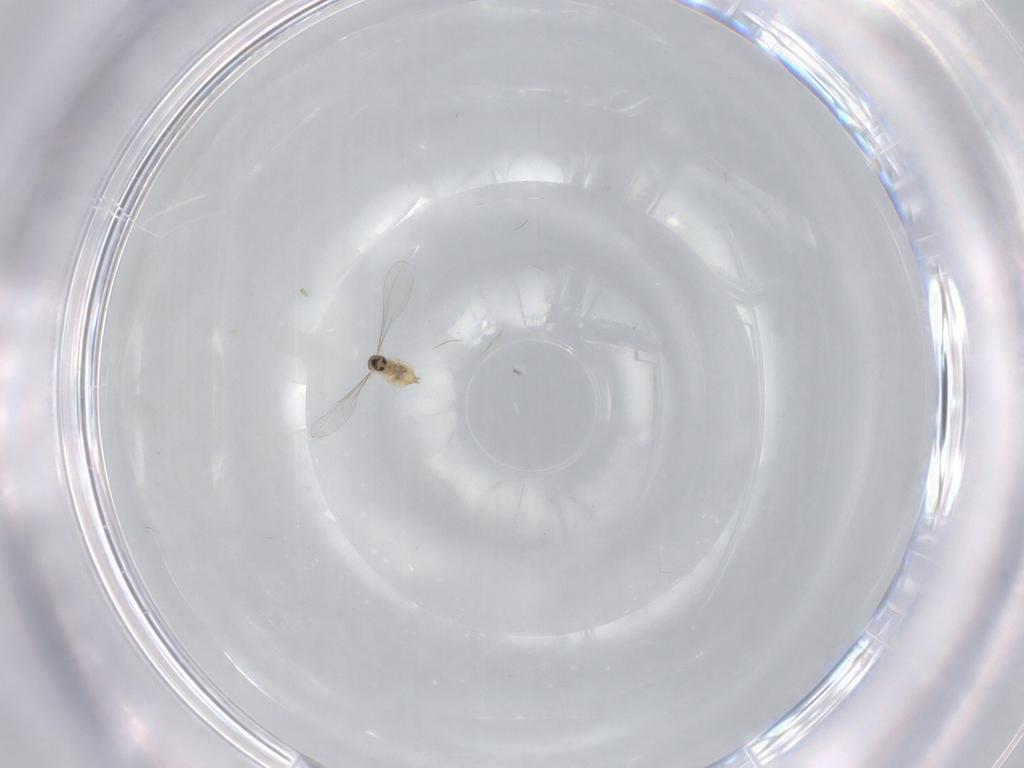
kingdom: Animalia
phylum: Arthropoda
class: Insecta
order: Diptera
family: Cecidomyiidae
